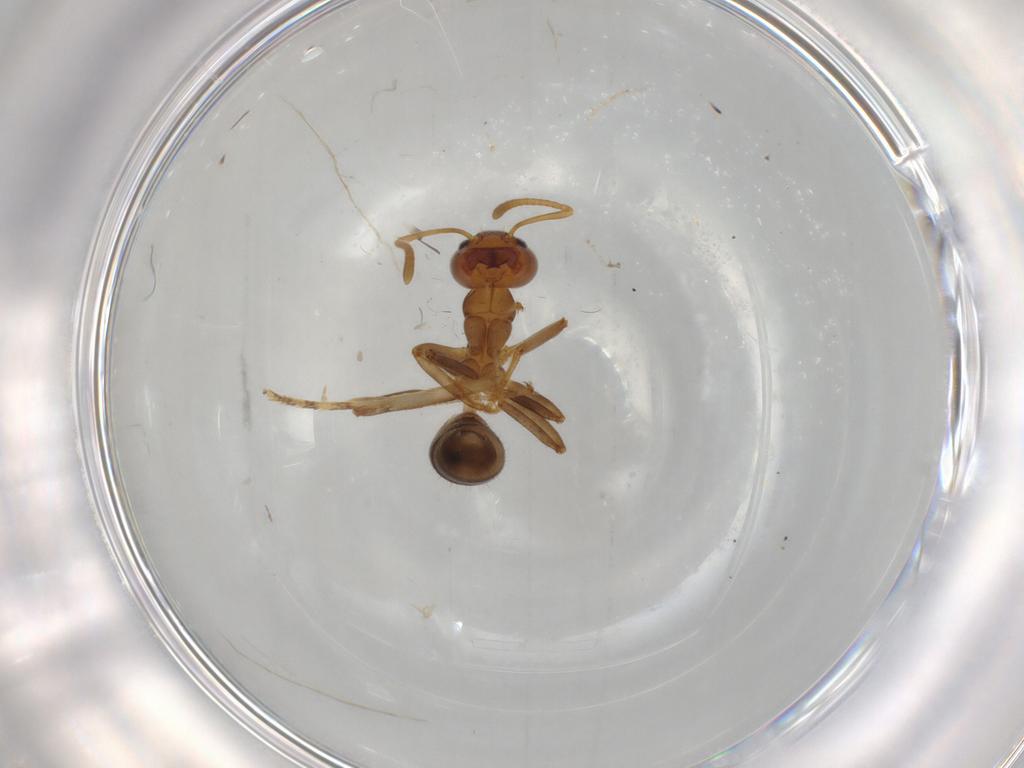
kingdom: Animalia
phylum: Arthropoda
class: Insecta
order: Hymenoptera
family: Formicidae
